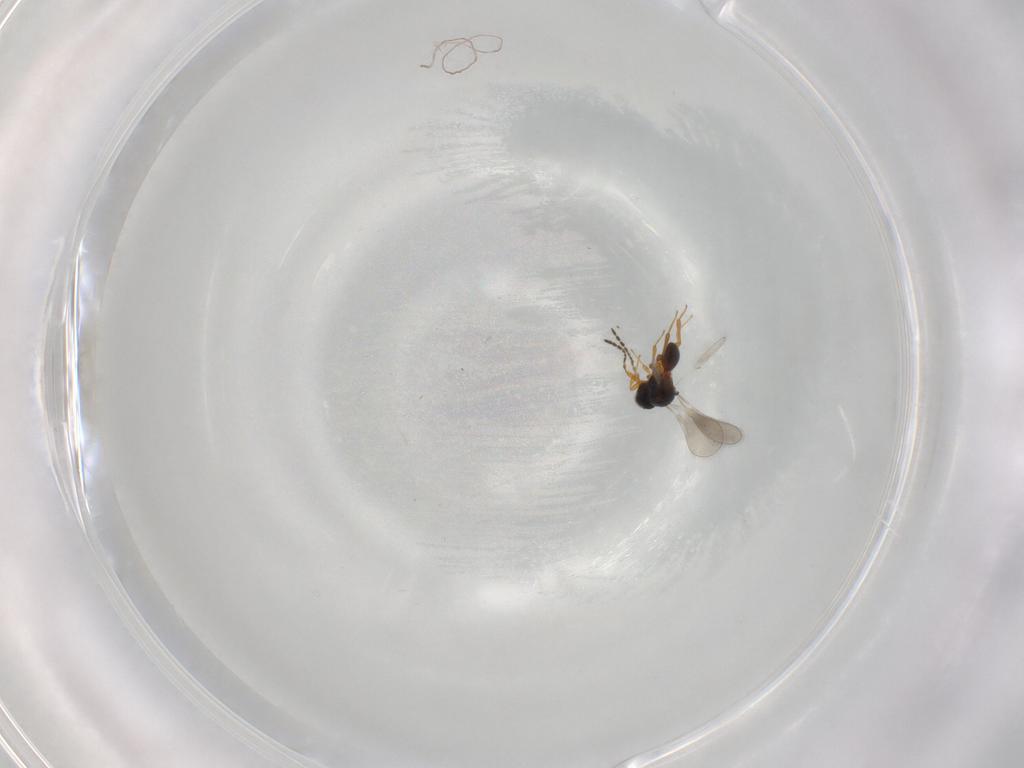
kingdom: Animalia
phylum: Arthropoda
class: Insecta
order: Hymenoptera
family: Platygastridae
